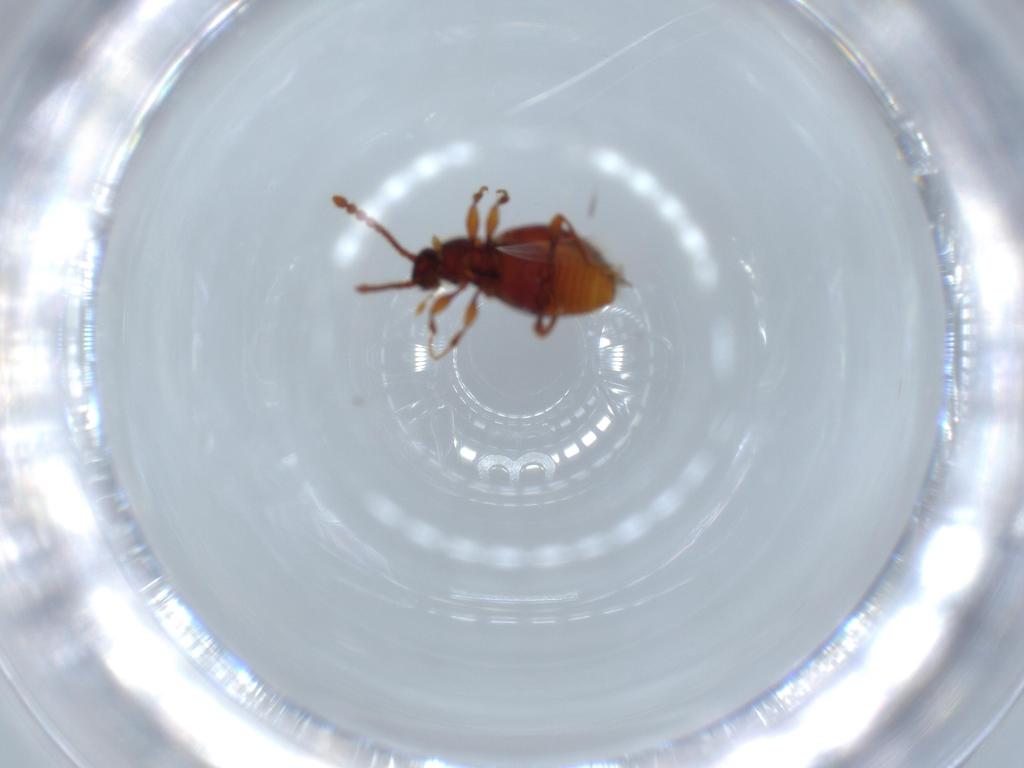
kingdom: Animalia
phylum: Arthropoda
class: Insecta
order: Coleoptera
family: Staphylinidae
